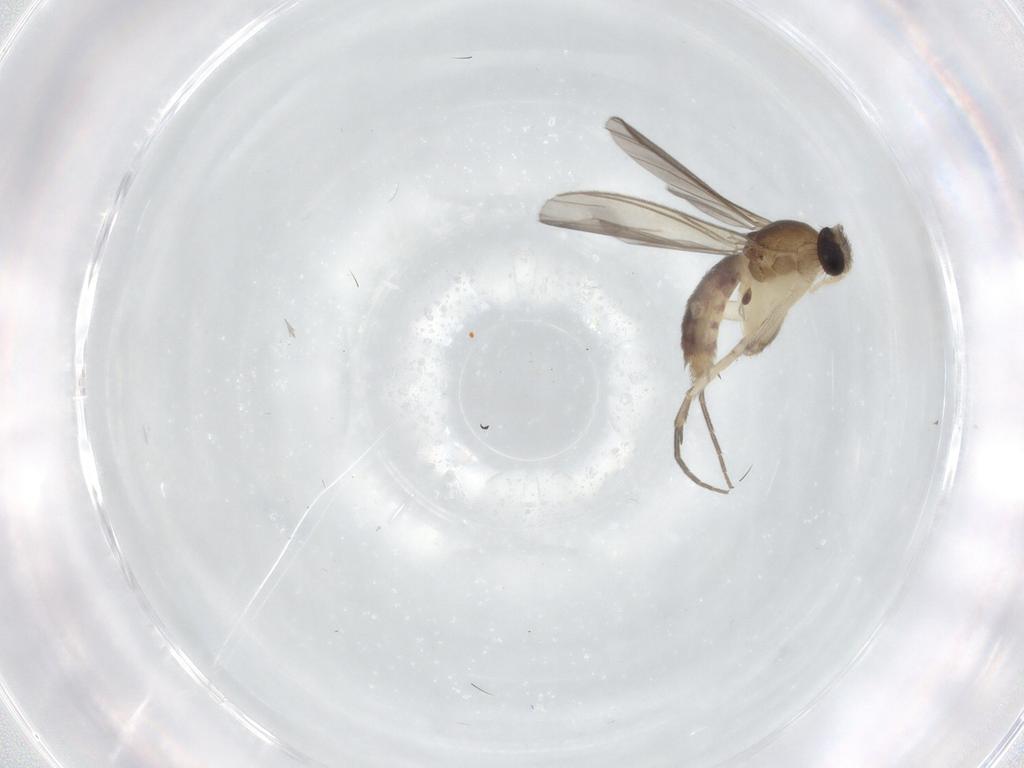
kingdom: Animalia
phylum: Arthropoda
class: Insecta
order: Diptera
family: Mycetophilidae
